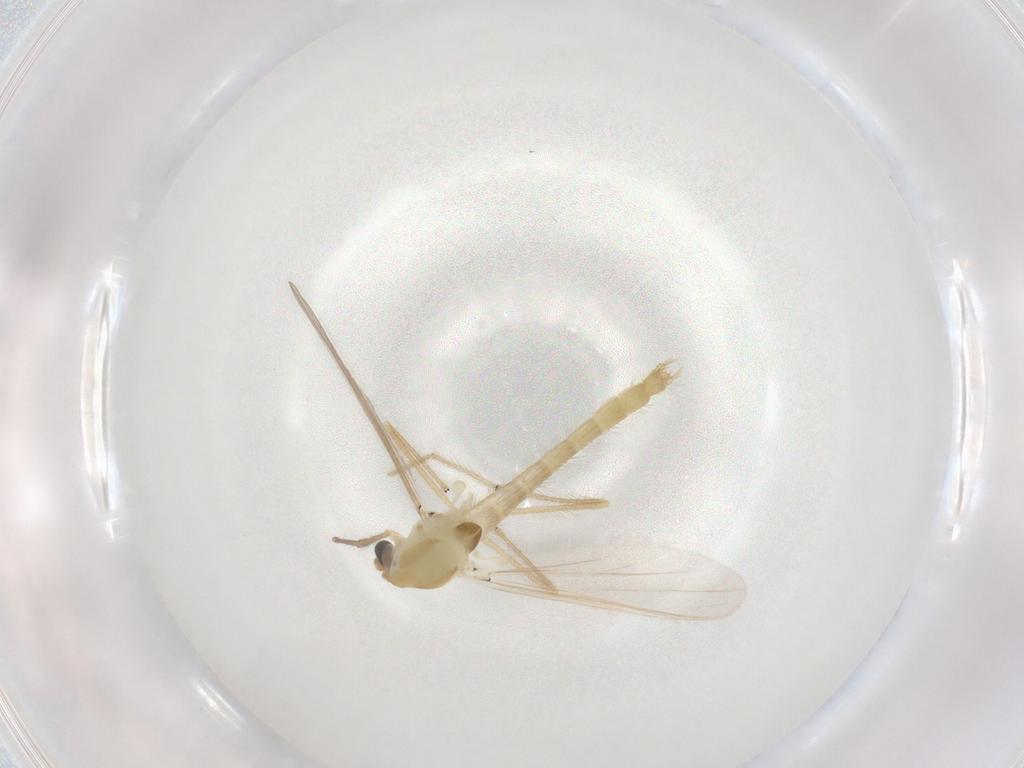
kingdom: Animalia
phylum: Arthropoda
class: Insecta
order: Diptera
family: Chironomidae
